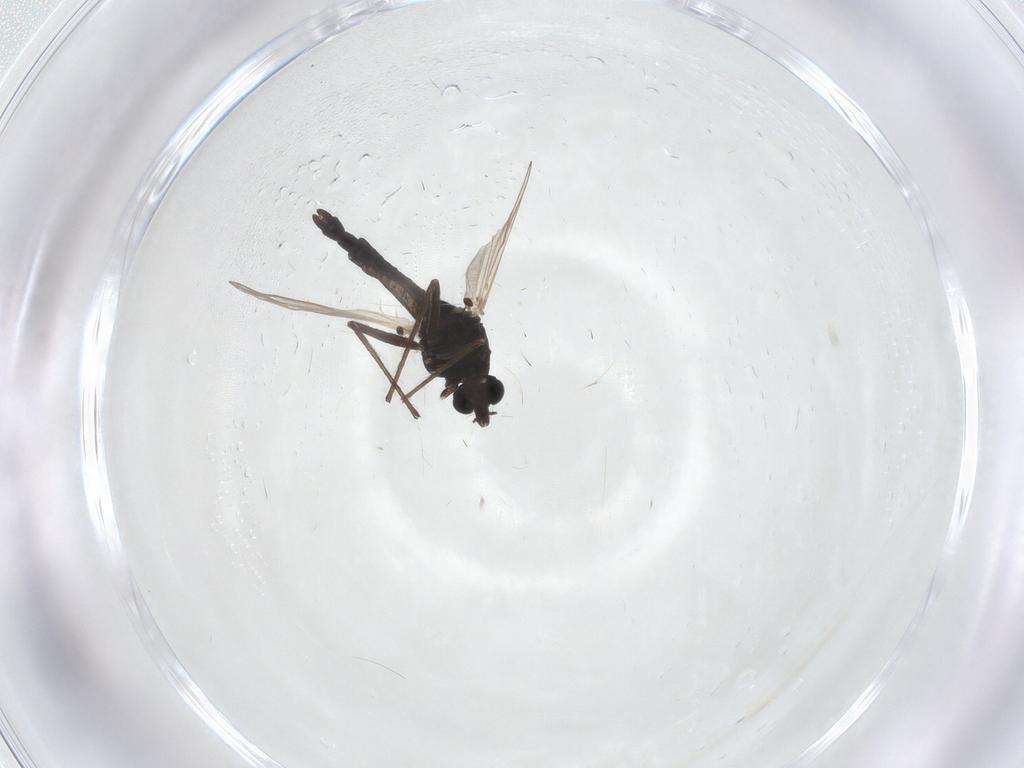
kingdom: Animalia
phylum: Arthropoda
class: Insecta
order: Diptera
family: Chironomidae
